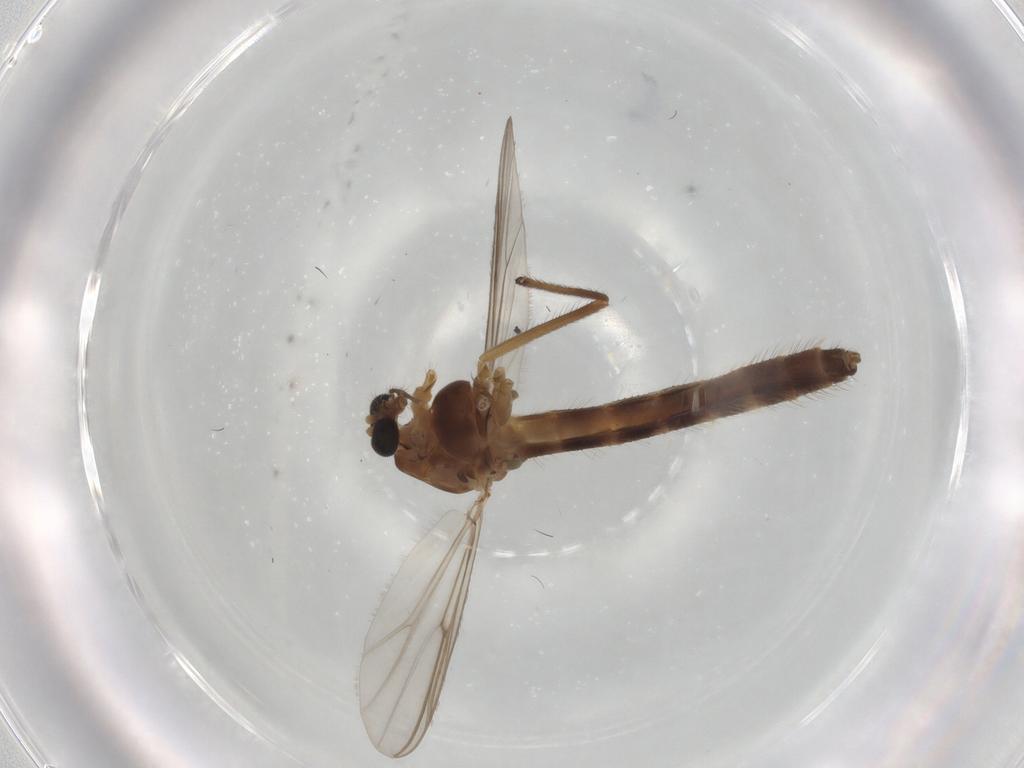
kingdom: Animalia
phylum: Arthropoda
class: Insecta
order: Diptera
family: Chironomidae
